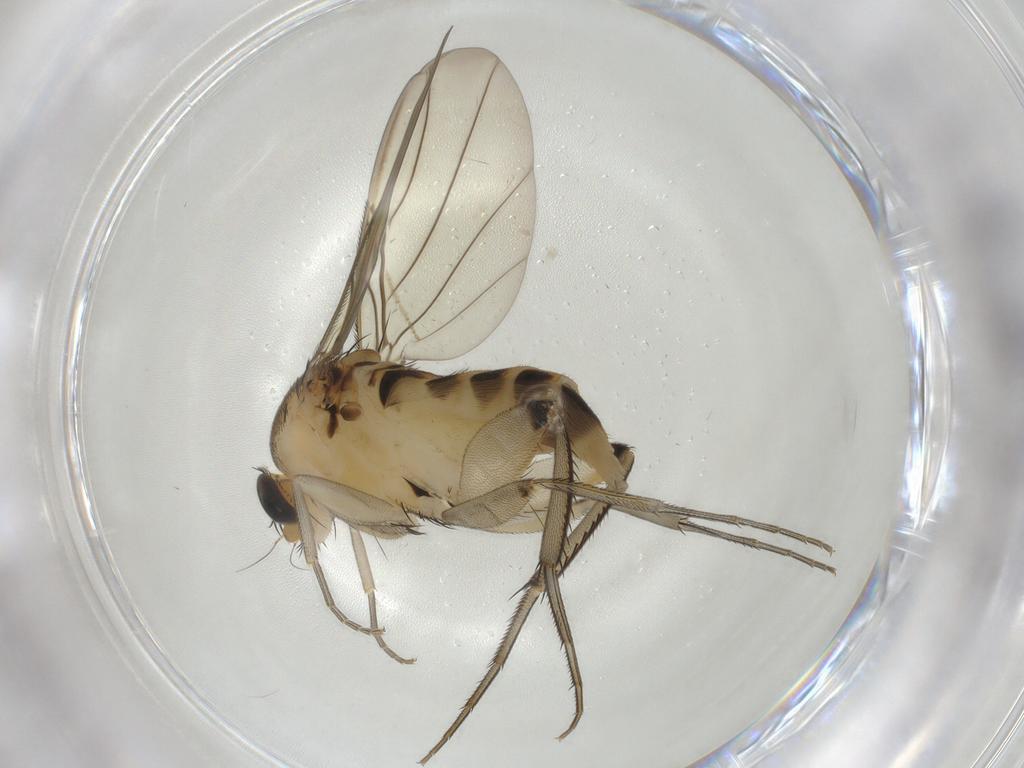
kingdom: Animalia
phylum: Arthropoda
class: Insecta
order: Diptera
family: Phoridae
